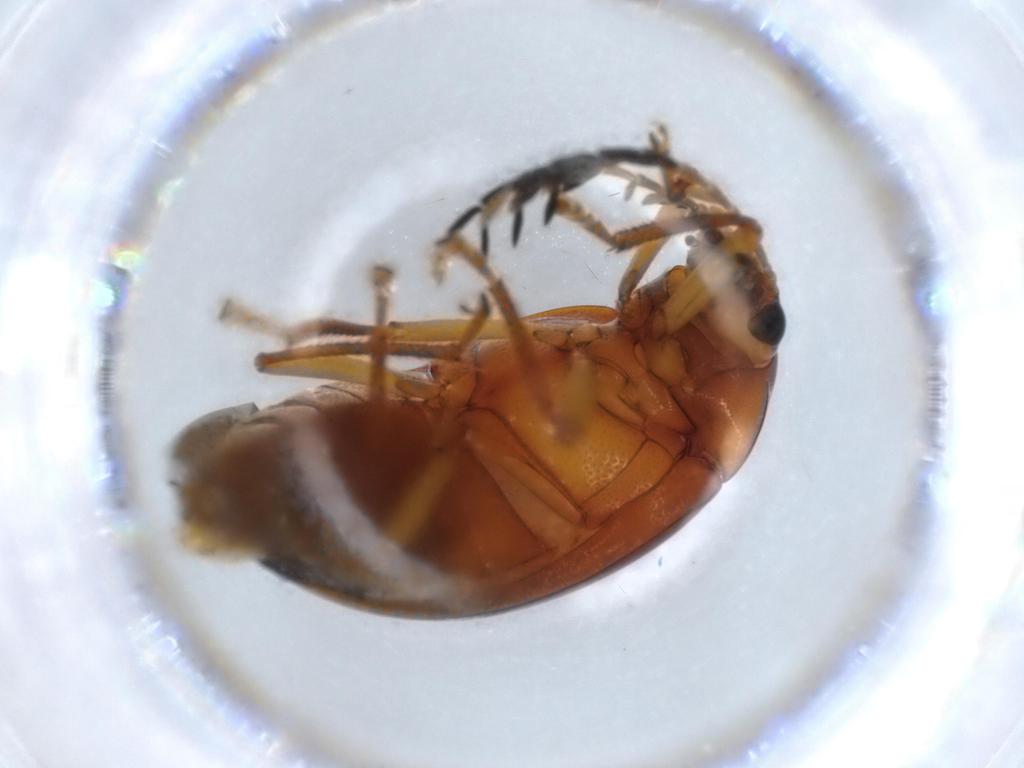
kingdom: Animalia
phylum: Arthropoda
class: Insecta
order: Coleoptera
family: Ptilodactylidae
